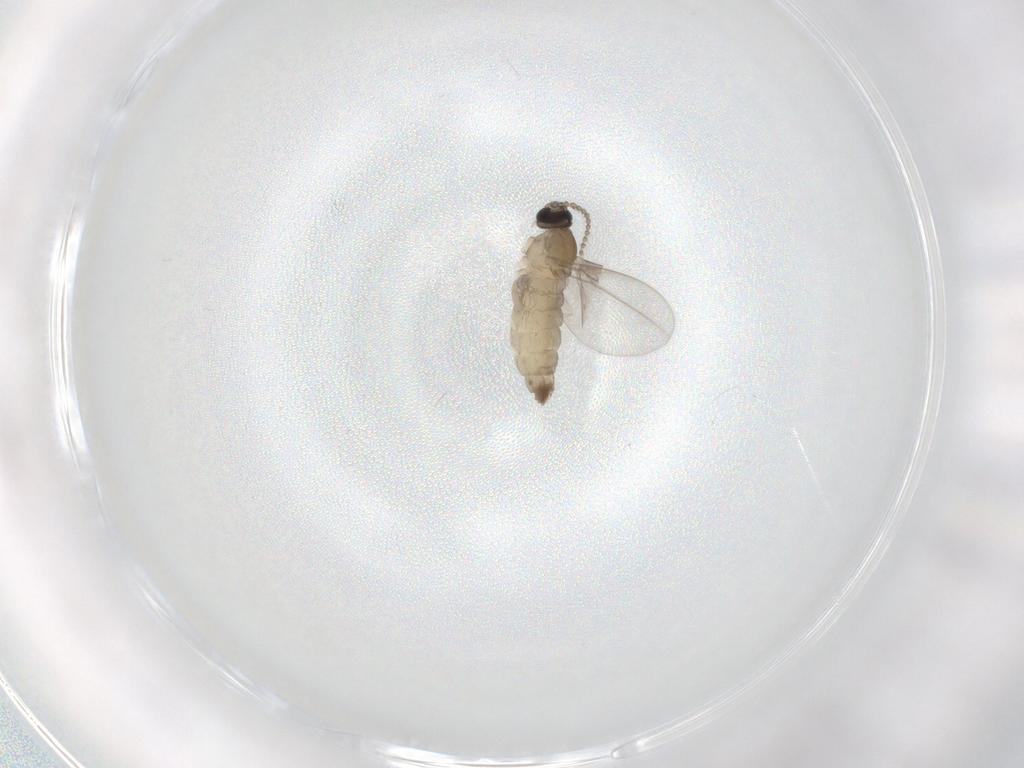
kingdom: Animalia
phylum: Arthropoda
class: Insecta
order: Diptera
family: Cecidomyiidae
